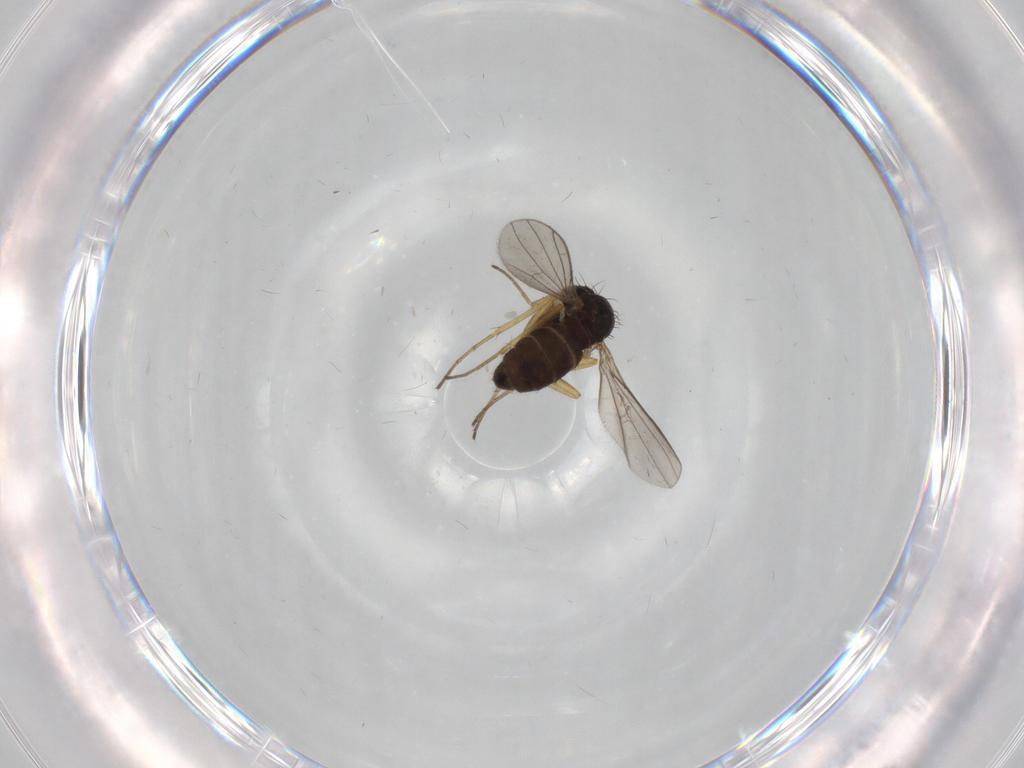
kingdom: Animalia
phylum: Arthropoda
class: Insecta
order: Diptera
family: Dolichopodidae
